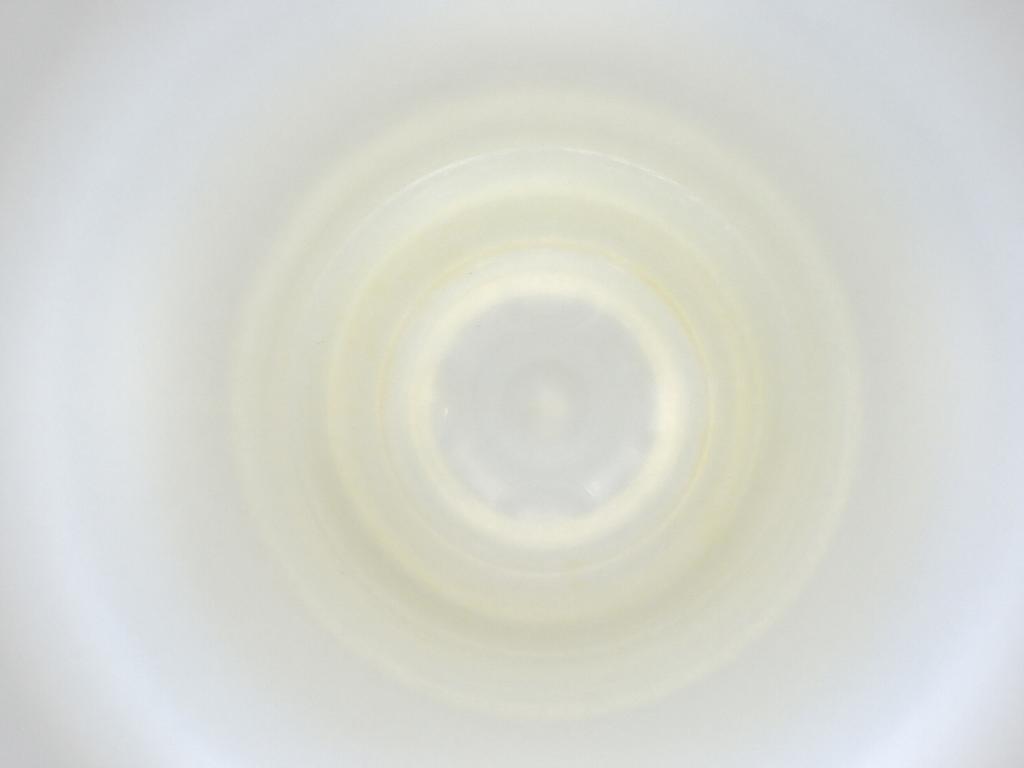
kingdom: Animalia
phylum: Arthropoda
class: Insecta
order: Diptera
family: Cecidomyiidae
